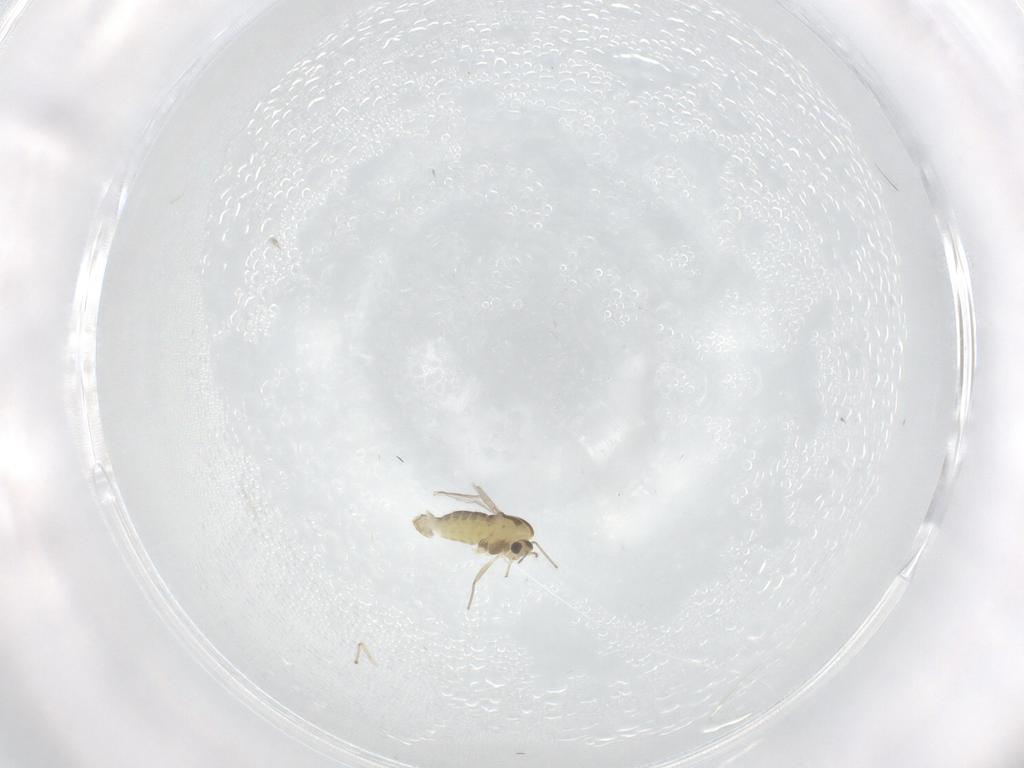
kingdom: Animalia
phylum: Arthropoda
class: Insecta
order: Diptera
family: Chironomidae
